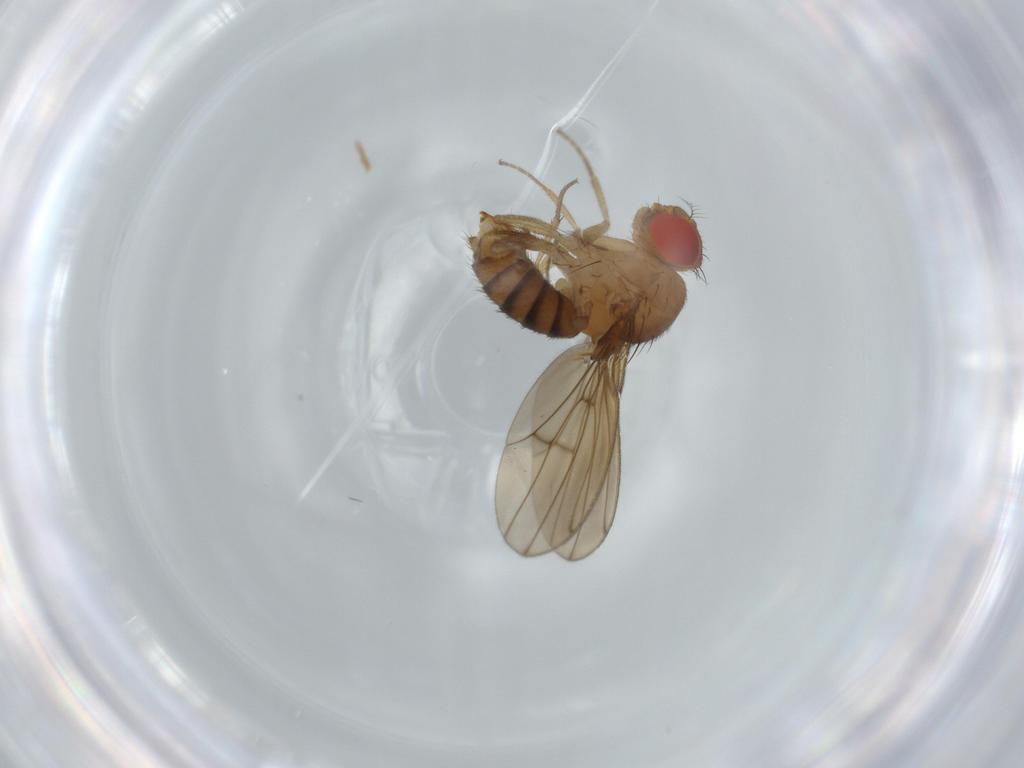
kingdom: Animalia
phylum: Arthropoda
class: Insecta
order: Diptera
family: Drosophilidae
